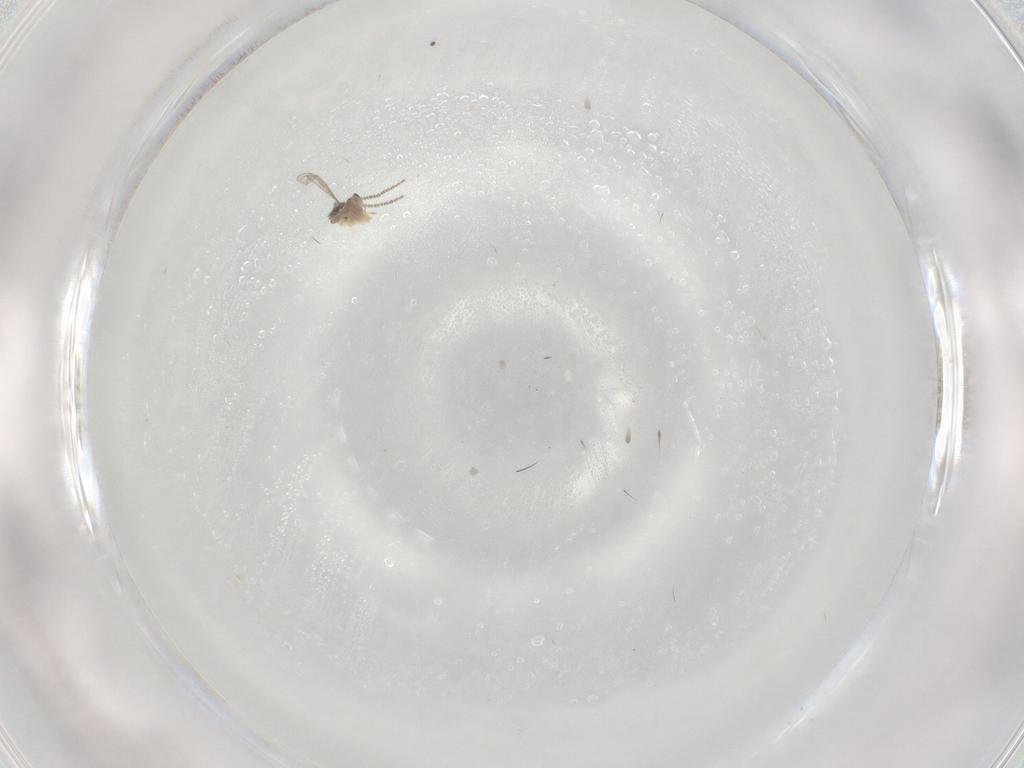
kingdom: Animalia
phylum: Arthropoda
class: Insecta
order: Diptera
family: Cecidomyiidae
